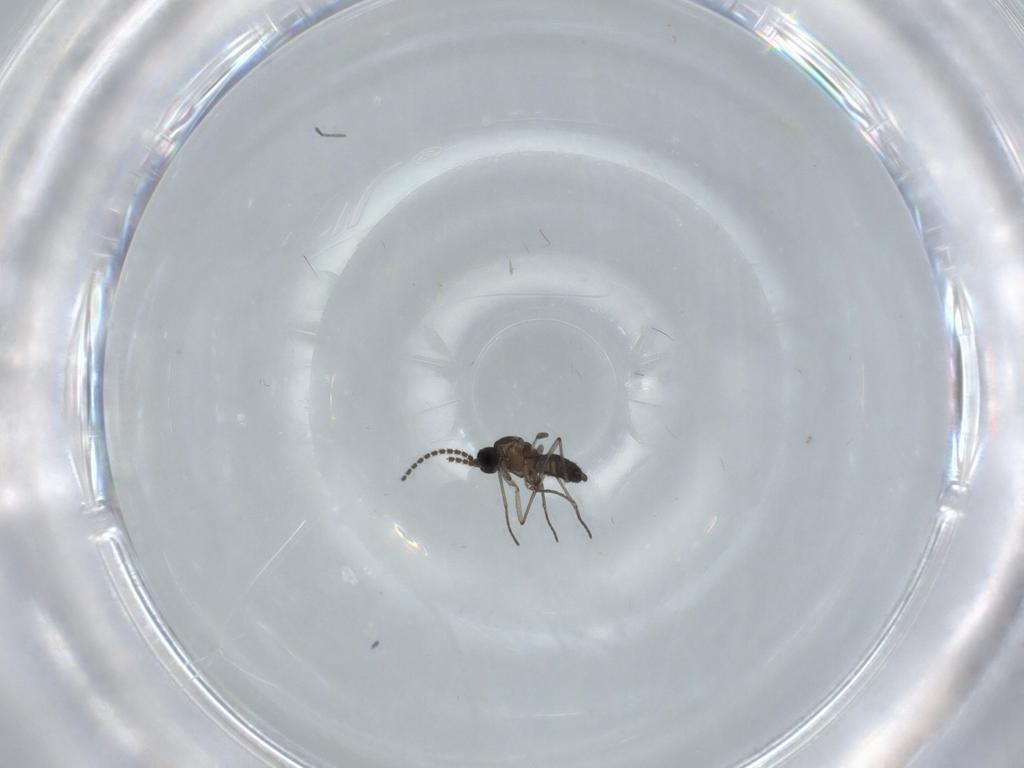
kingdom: Animalia
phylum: Arthropoda
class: Insecta
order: Diptera
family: Sciaridae
